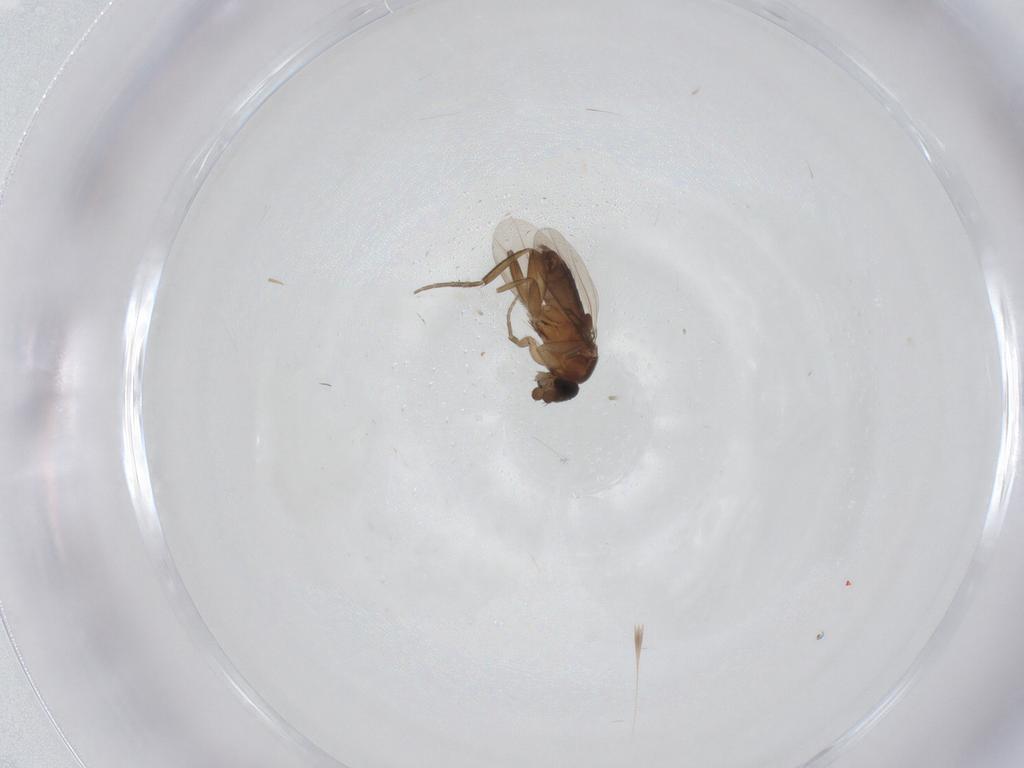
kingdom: Animalia
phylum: Arthropoda
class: Insecta
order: Diptera
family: Phoridae
